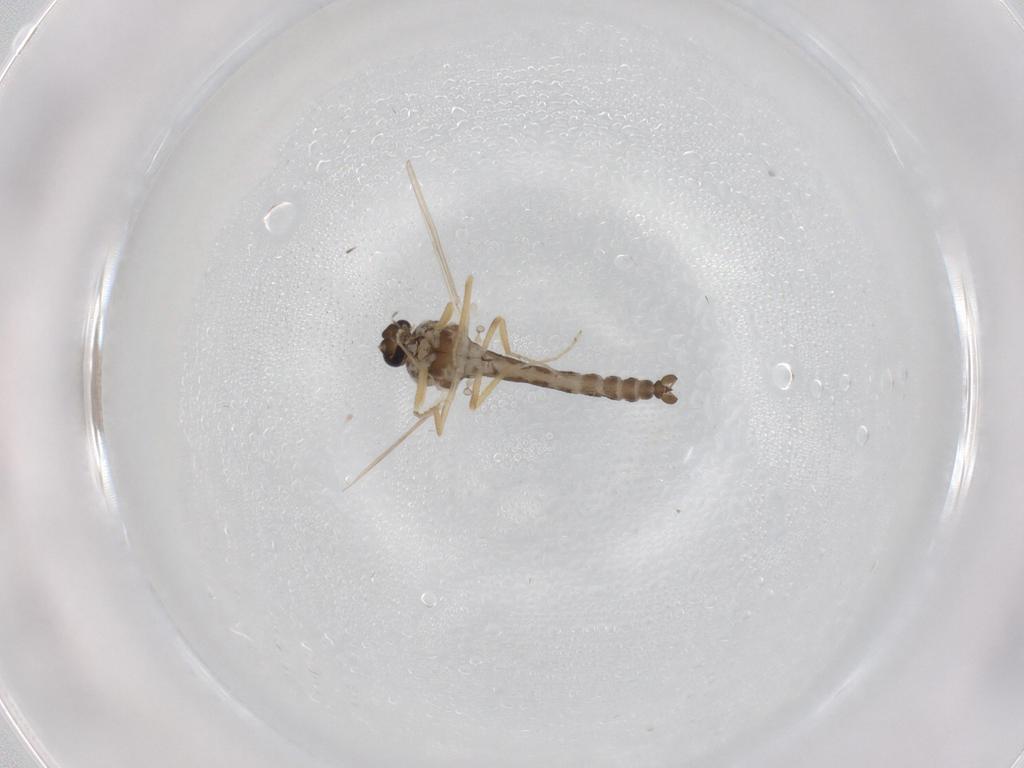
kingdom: Animalia
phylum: Arthropoda
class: Insecta
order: Diptera
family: Ceratopogonidae
